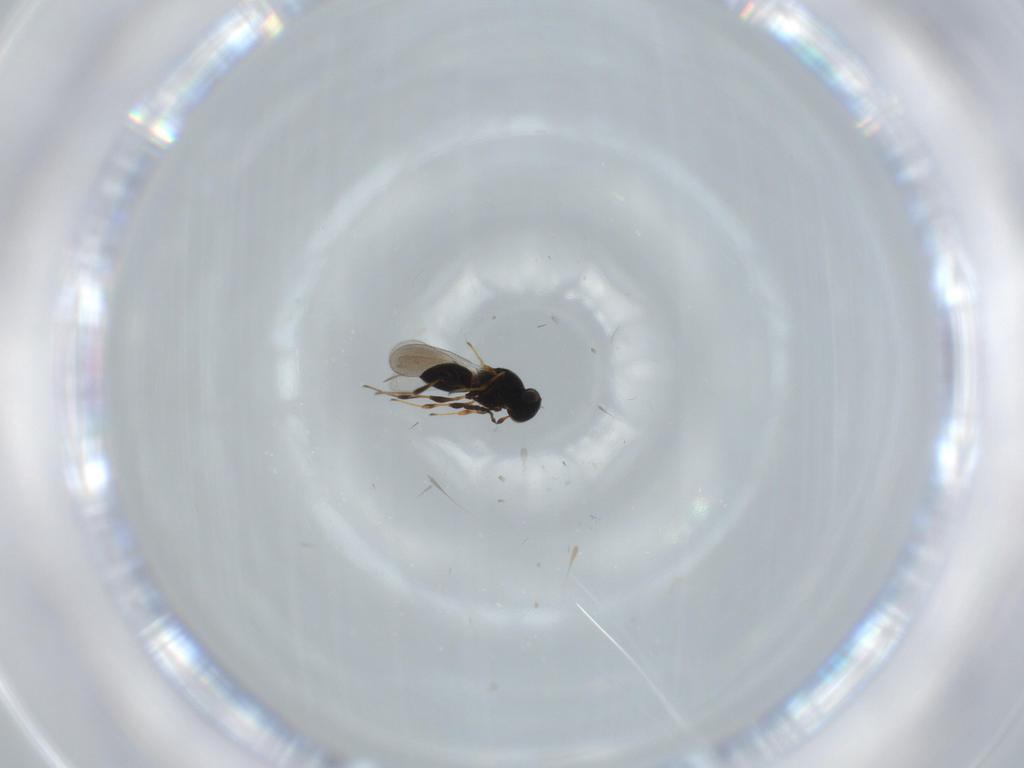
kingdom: Animalia
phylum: Arthropoda
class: Insecta
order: Hymenoptera
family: Platygastridae
